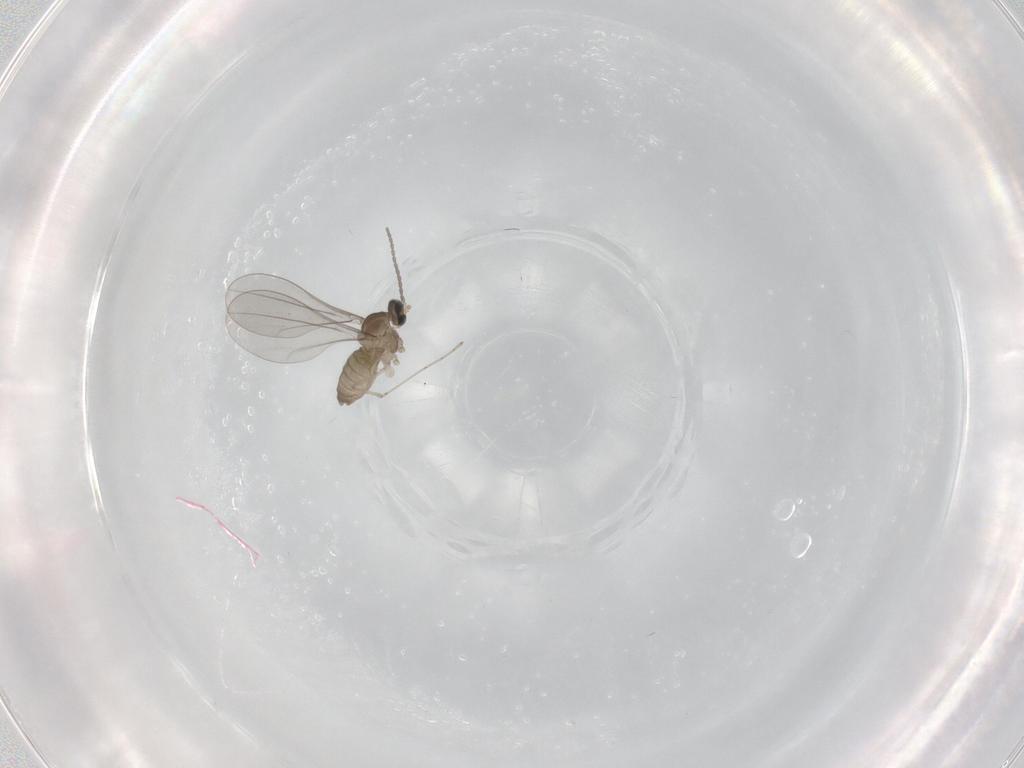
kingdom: Animalia
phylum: Arthropoda
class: Insecta
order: Diptera
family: Cecidomyiidae
